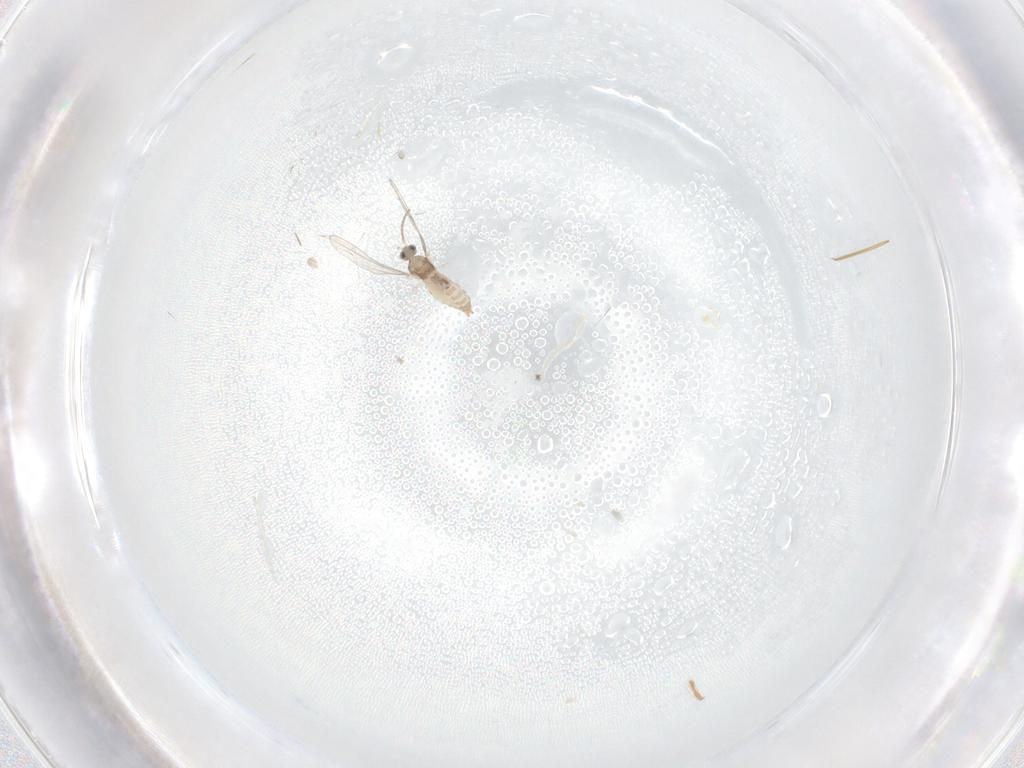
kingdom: Animalia
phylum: Arthropoda
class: Insecta
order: Diptera
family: Cecidomyiidae
